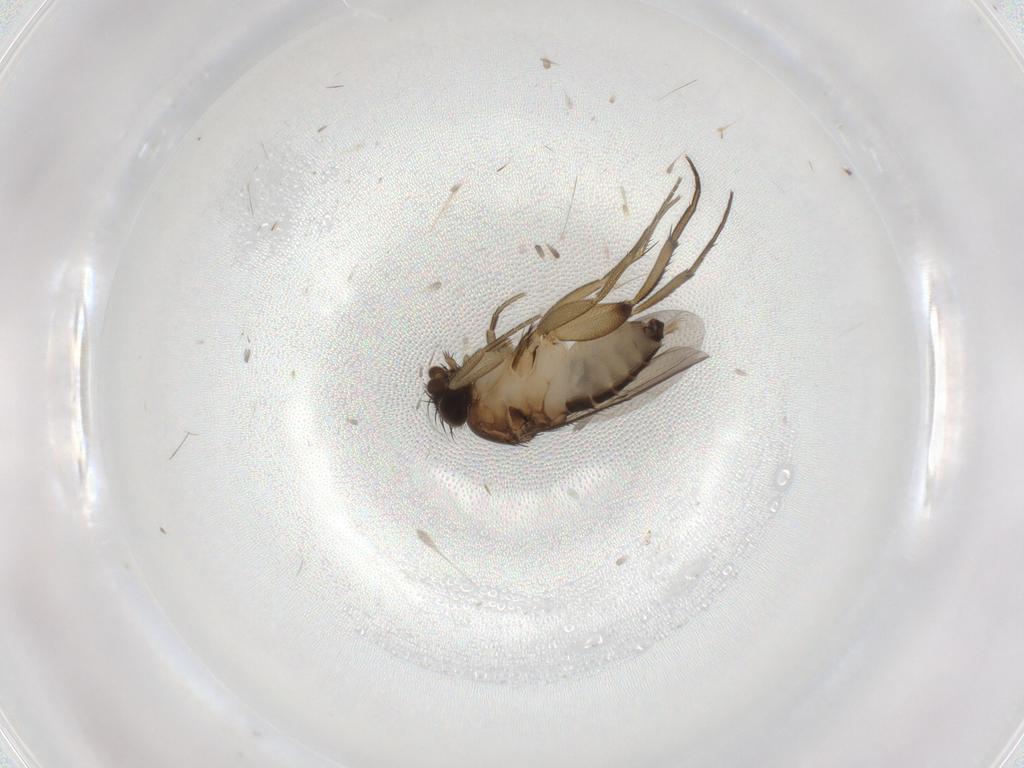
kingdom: Animalia
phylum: Arthropoda
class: Insecta
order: Diptera
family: Phoridae
